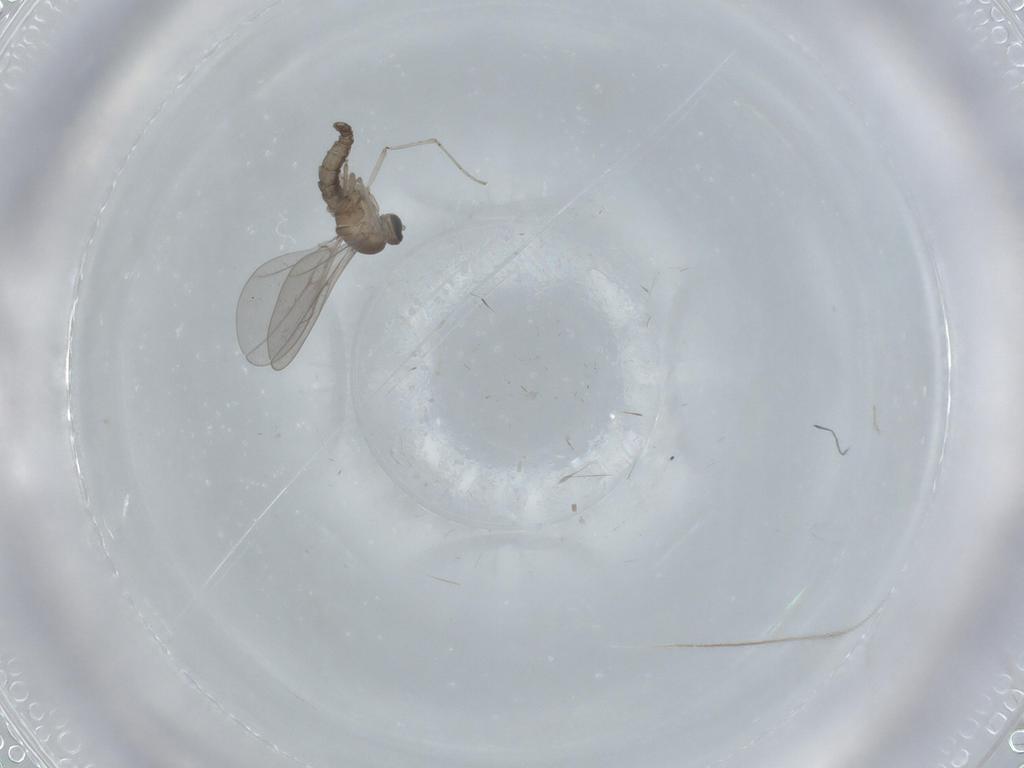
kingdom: Animalia
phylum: Arthropoda
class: Insecta
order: Diptera
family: Cecidomyiidae
